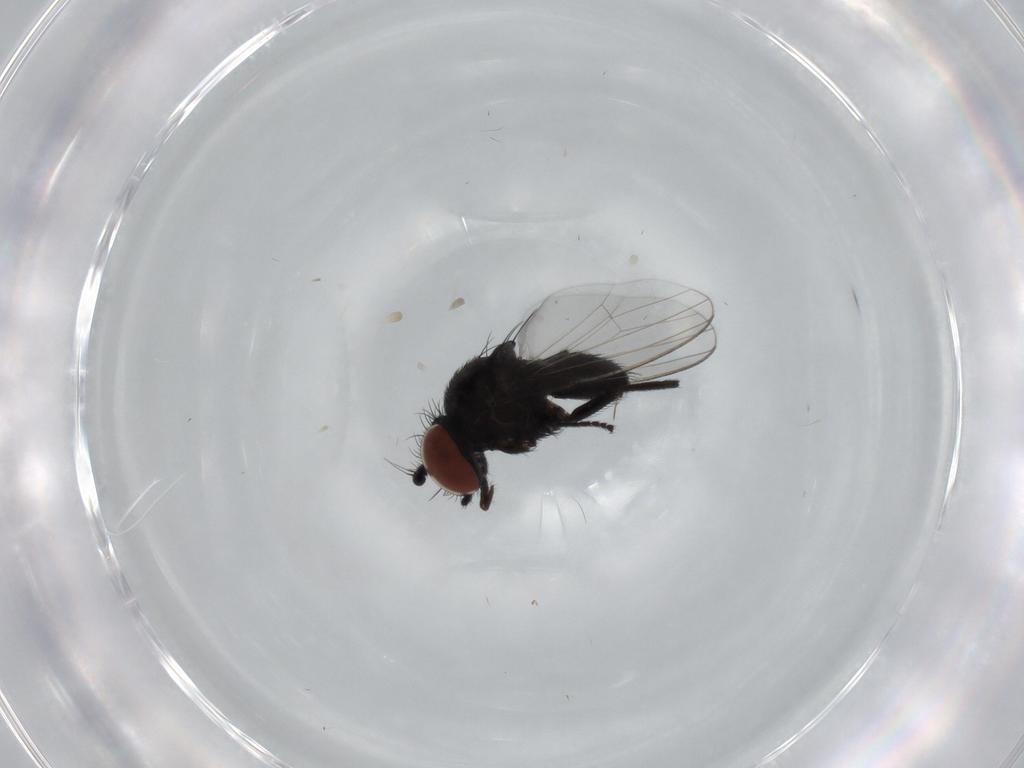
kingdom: Animalia
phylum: Arthropoda
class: Insecta
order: Diptera
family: Milichiidae
